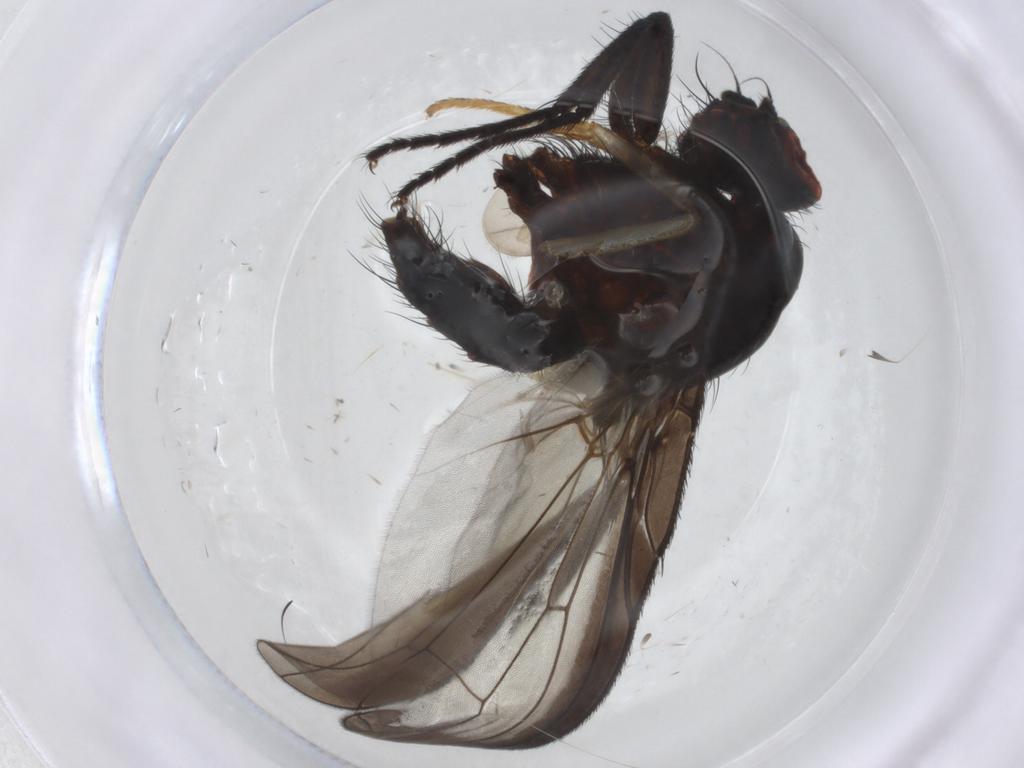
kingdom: Animalia
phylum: Arthropoda
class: Insecta
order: Diptera
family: Anthomyiidae
